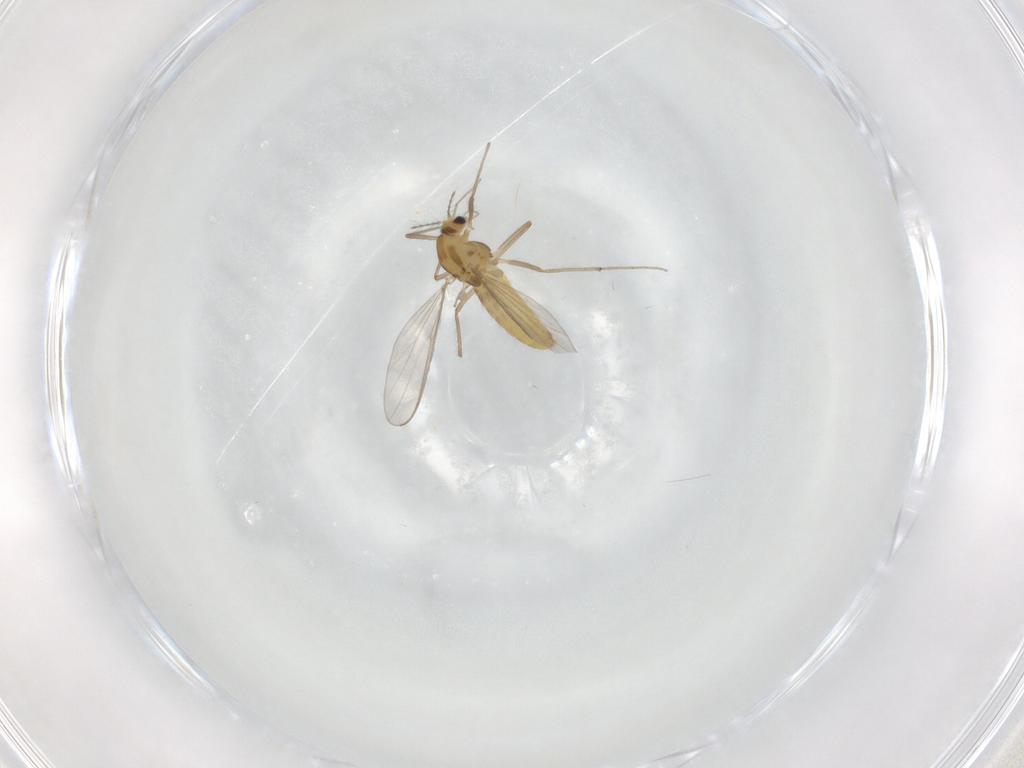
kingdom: Animalia
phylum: Arthropoda
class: Insecta
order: Diptera
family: Chironomidae
